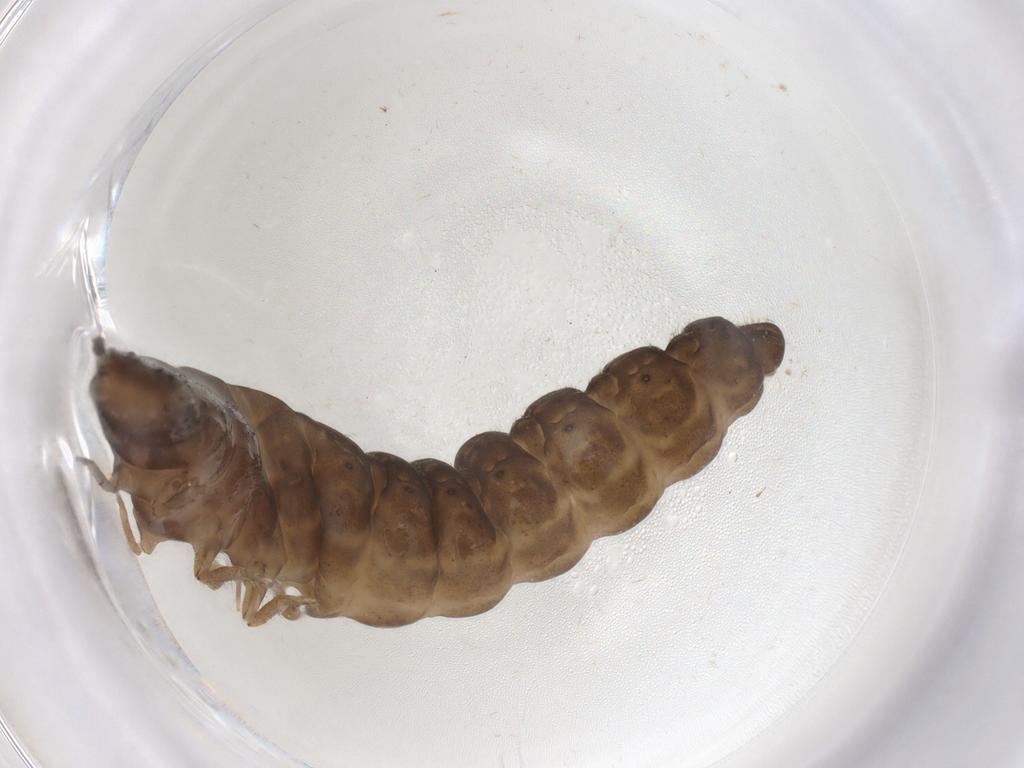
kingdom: Animalia
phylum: Arthropoda
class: Insecta
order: Coleoptera
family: Cantharidae
